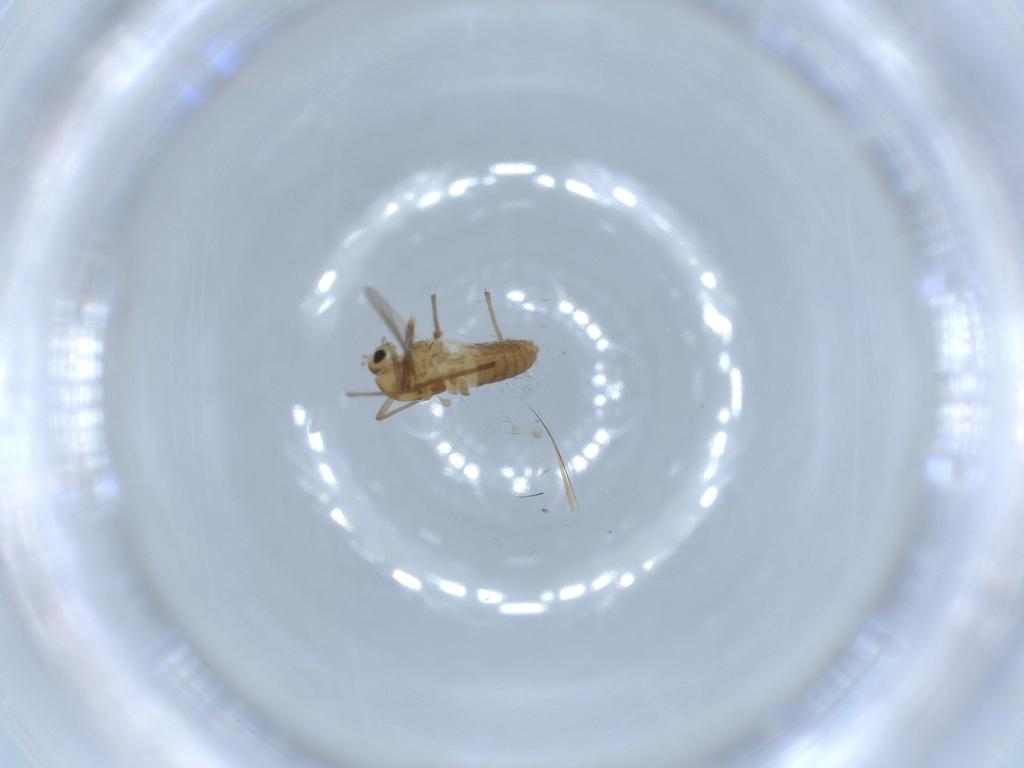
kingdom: Animalia
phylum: Arthropoda
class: Insecta
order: Diptera
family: Chironomidae
